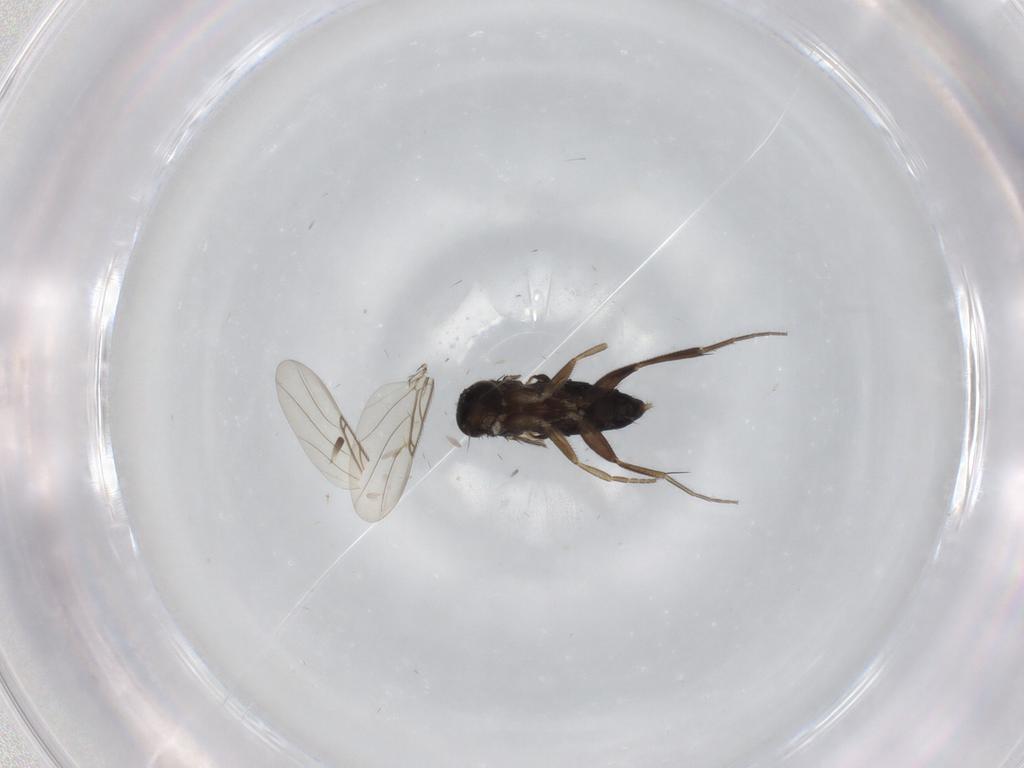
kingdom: Animalia
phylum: Arthropoda
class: Insecta
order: Diptera
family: Phoridae
